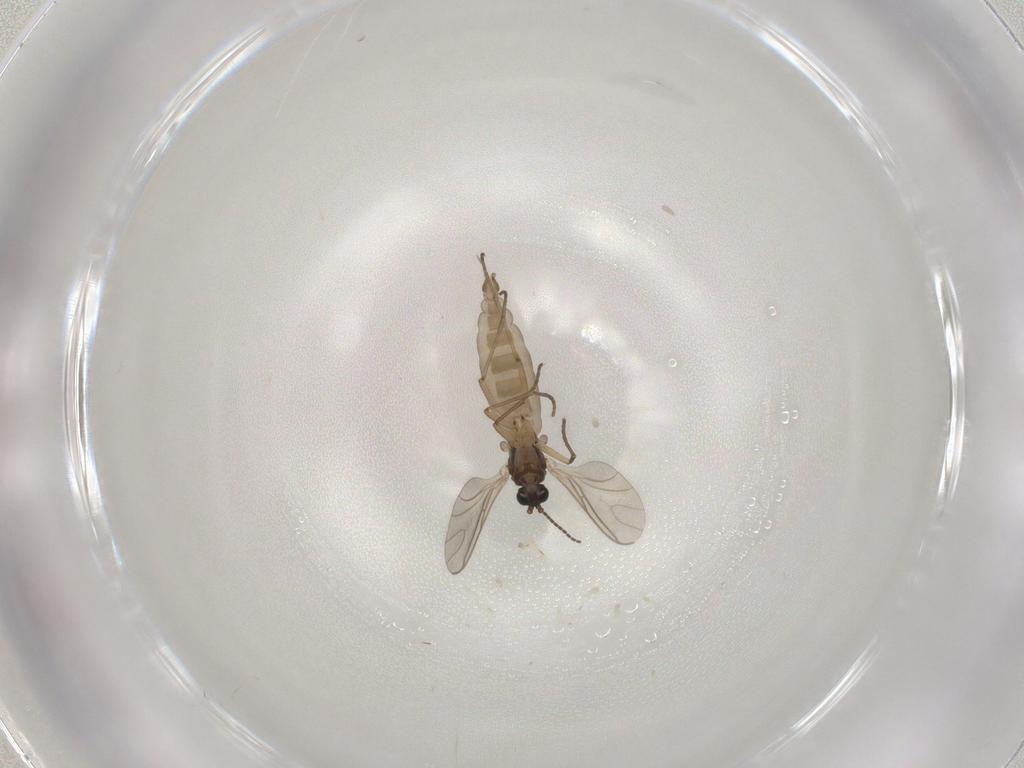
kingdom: Animalia
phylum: Arthropoda
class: Insecta
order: Diptera
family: Sciaridae
